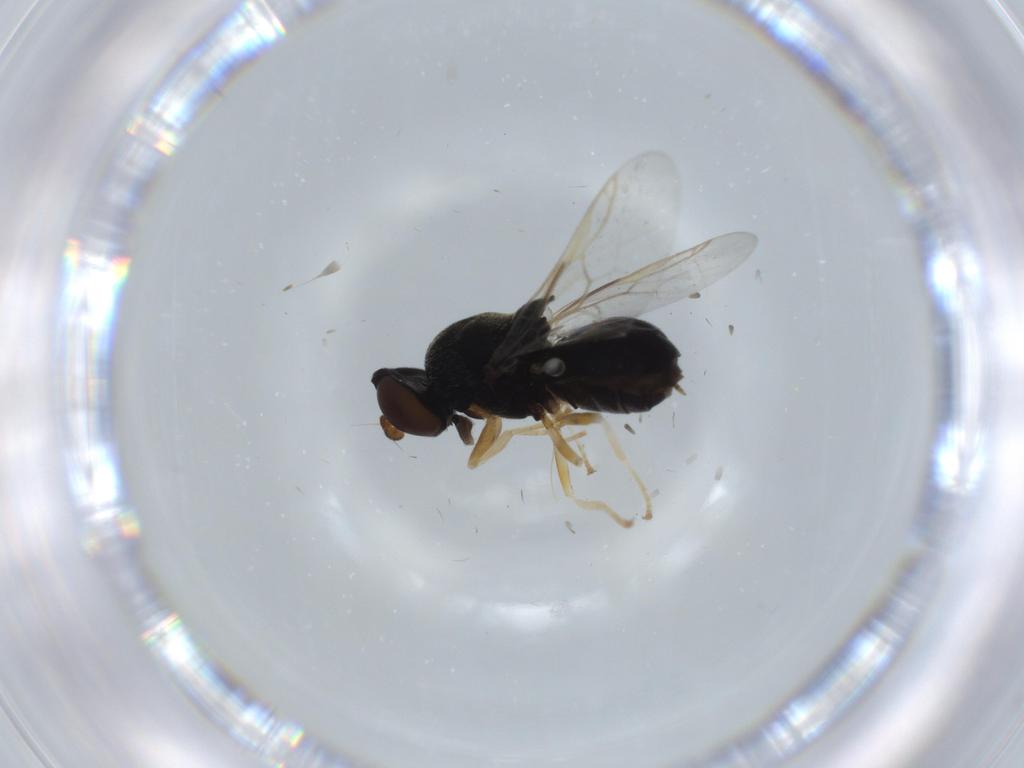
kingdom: Animalia
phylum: Arthropoda
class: Insecta
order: Diptera
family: Stratiomyidae
